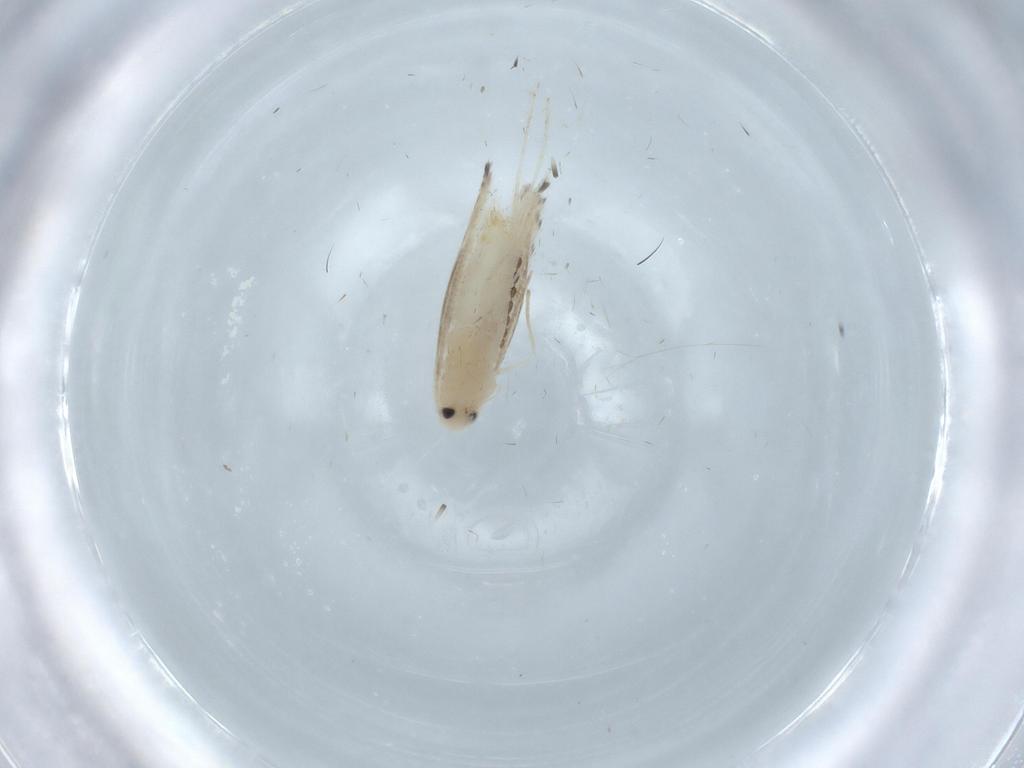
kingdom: Animalia
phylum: Arthropoda
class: Insecta
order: Lepidoptera
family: Gracillariidae
